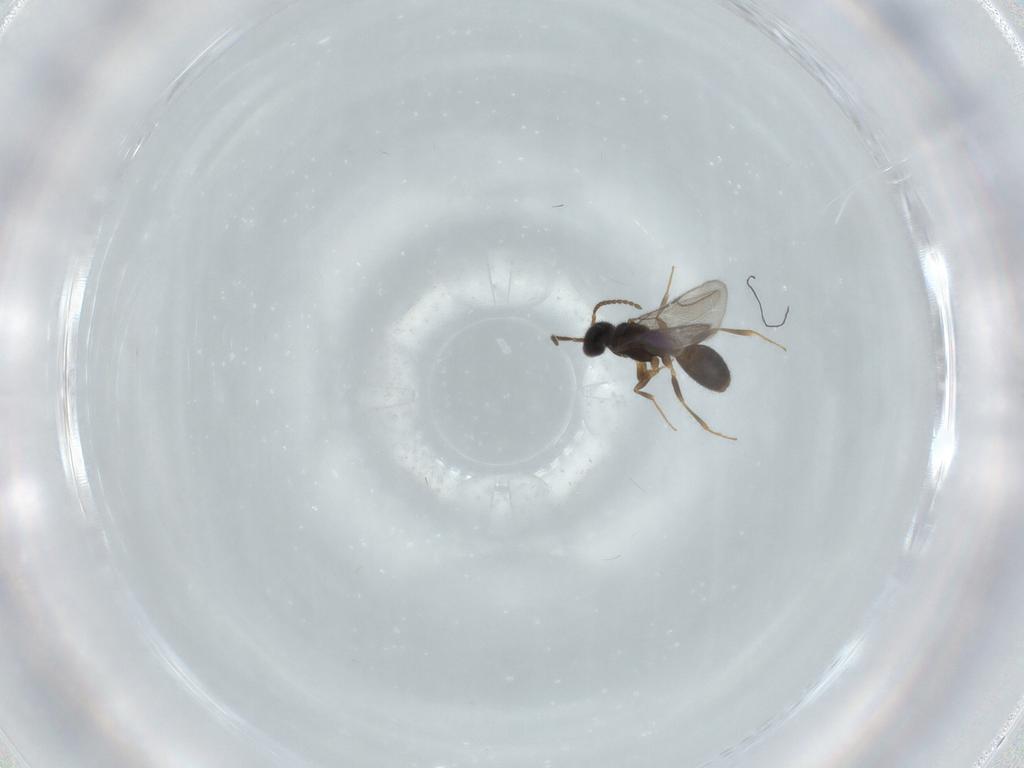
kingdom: Animalia
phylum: Arthropoda
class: Insecta
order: Hymenoptera
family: Bethylidae
